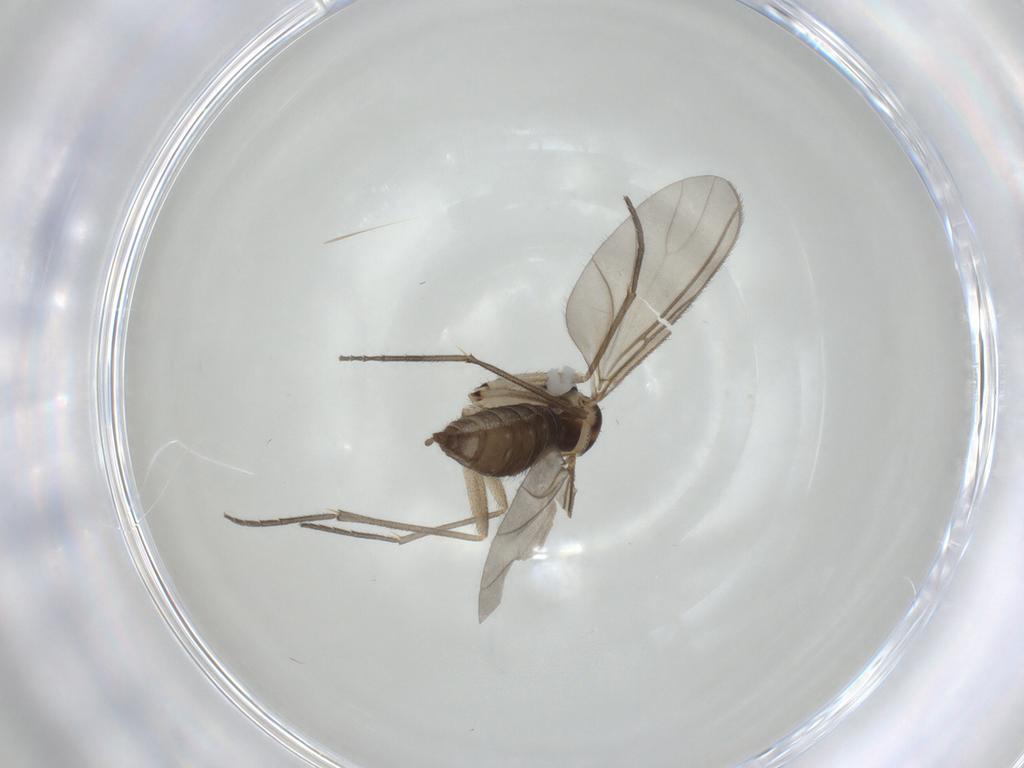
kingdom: Animalia
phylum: Arthropoda
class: Insecta
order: Diptera
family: Sciaridae
